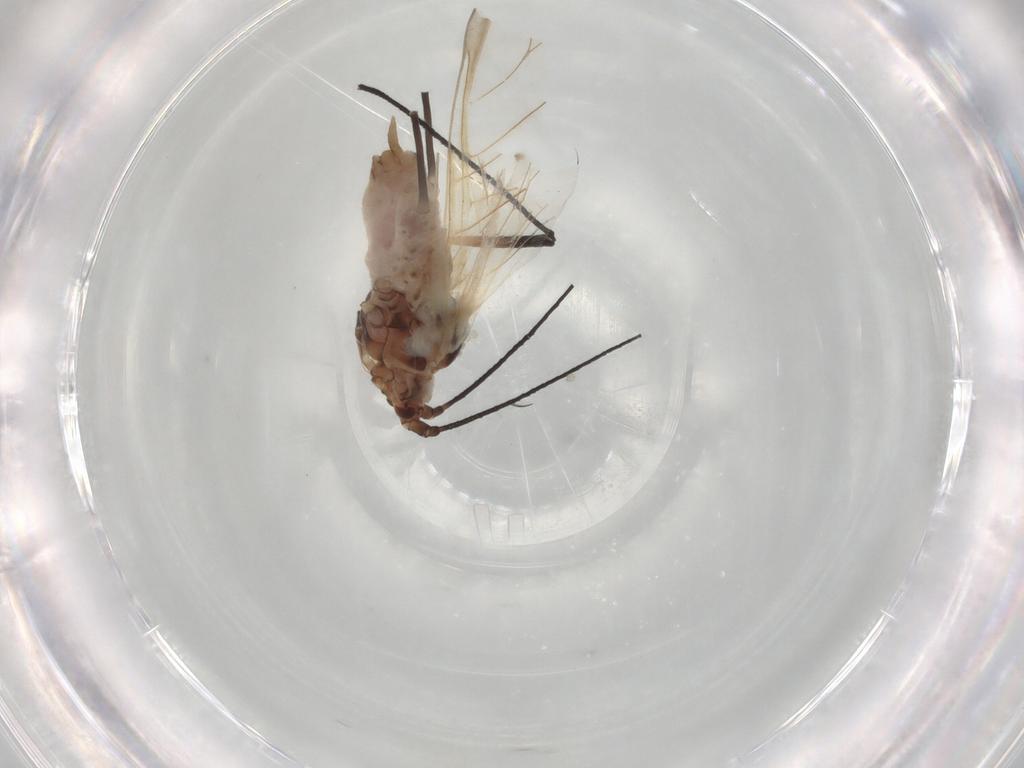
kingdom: Animalia
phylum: Arthropoda
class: Insecta
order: Hemiptera
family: Aphididae
